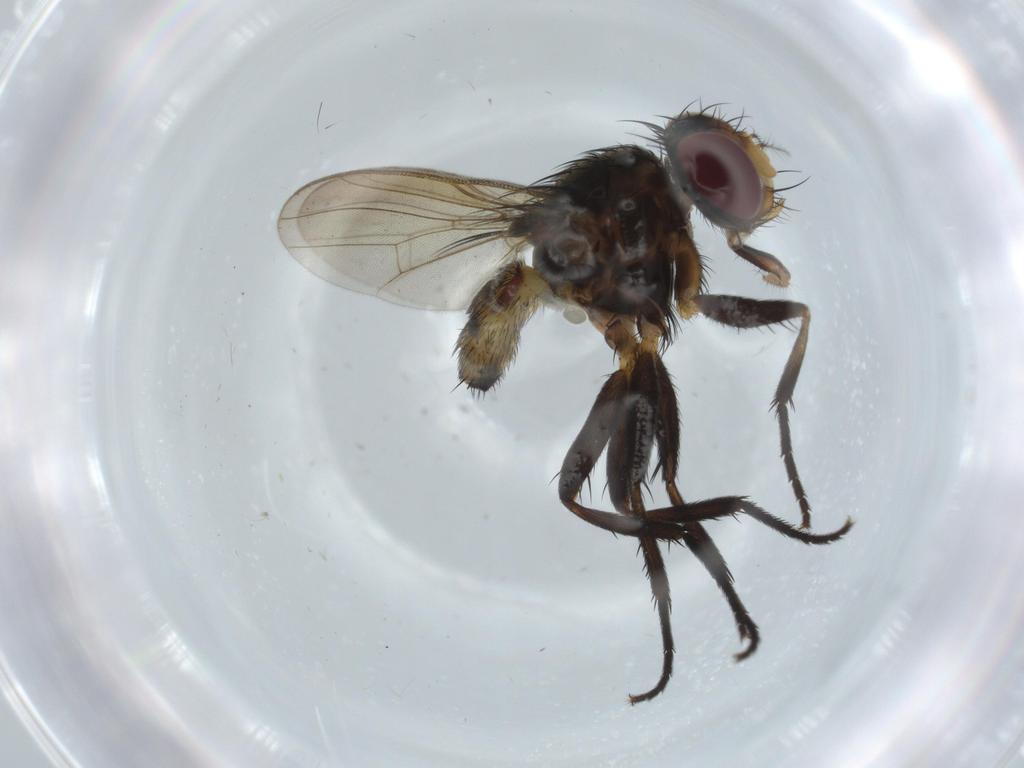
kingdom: Animalia
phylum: Arthropoda
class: Insecta
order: Diptera
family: Anthomyiidae
